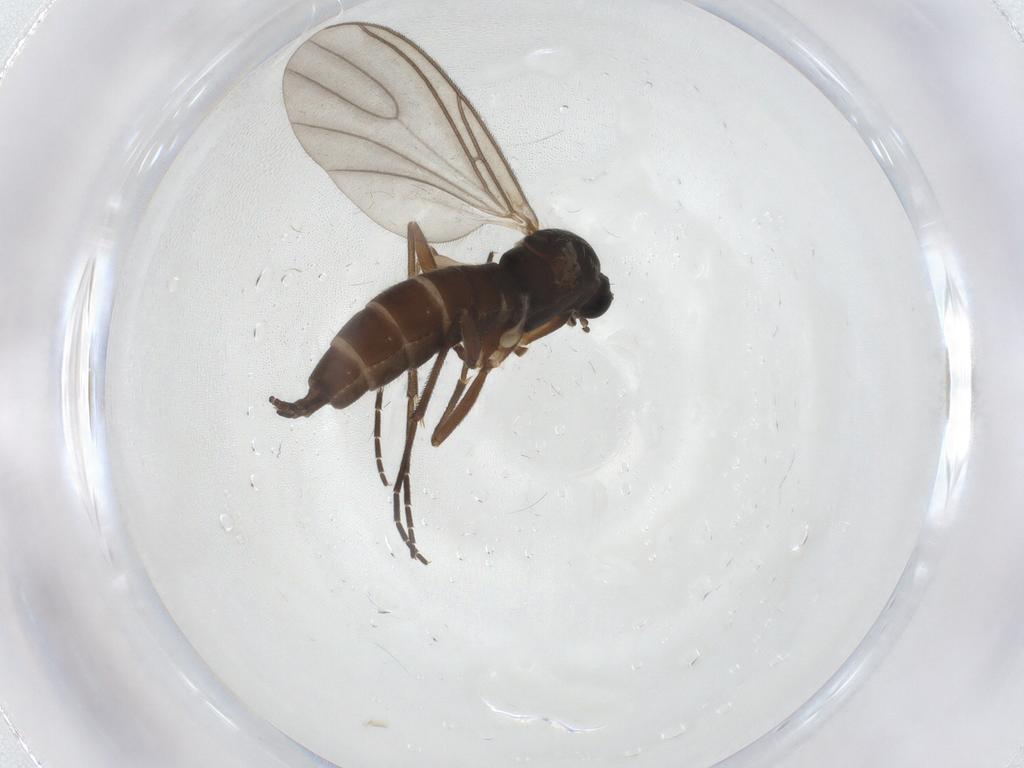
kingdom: Animalia
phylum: Arthropoda
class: Insecta
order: Diptera
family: Sciaridae
